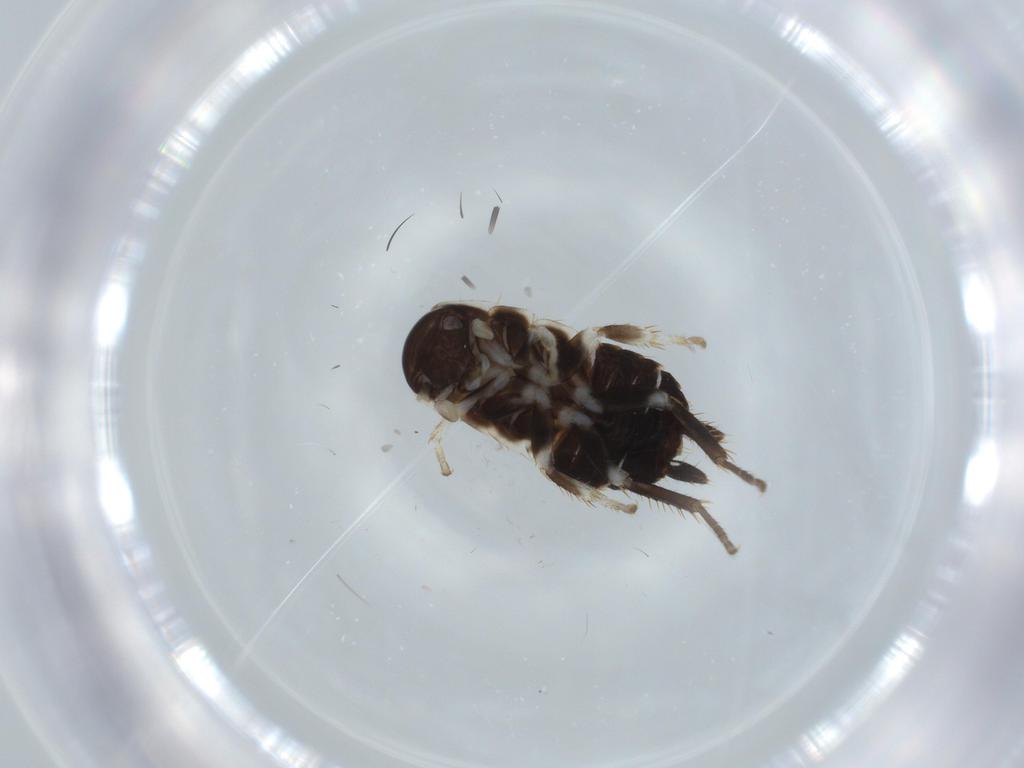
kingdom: Animalia
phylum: Arthropoda
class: Insecta
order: Blattodea
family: Ectobiidae
